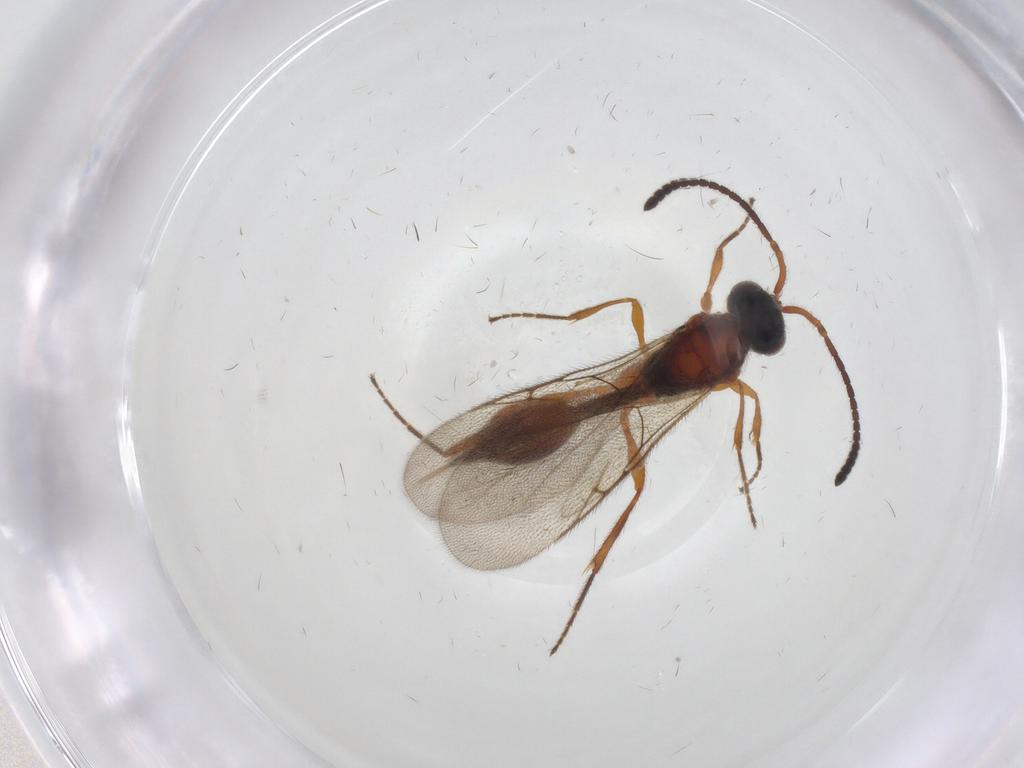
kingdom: Animalia
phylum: Arthropoda
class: Insecta
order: Hymenoptera
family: Diapriidae
